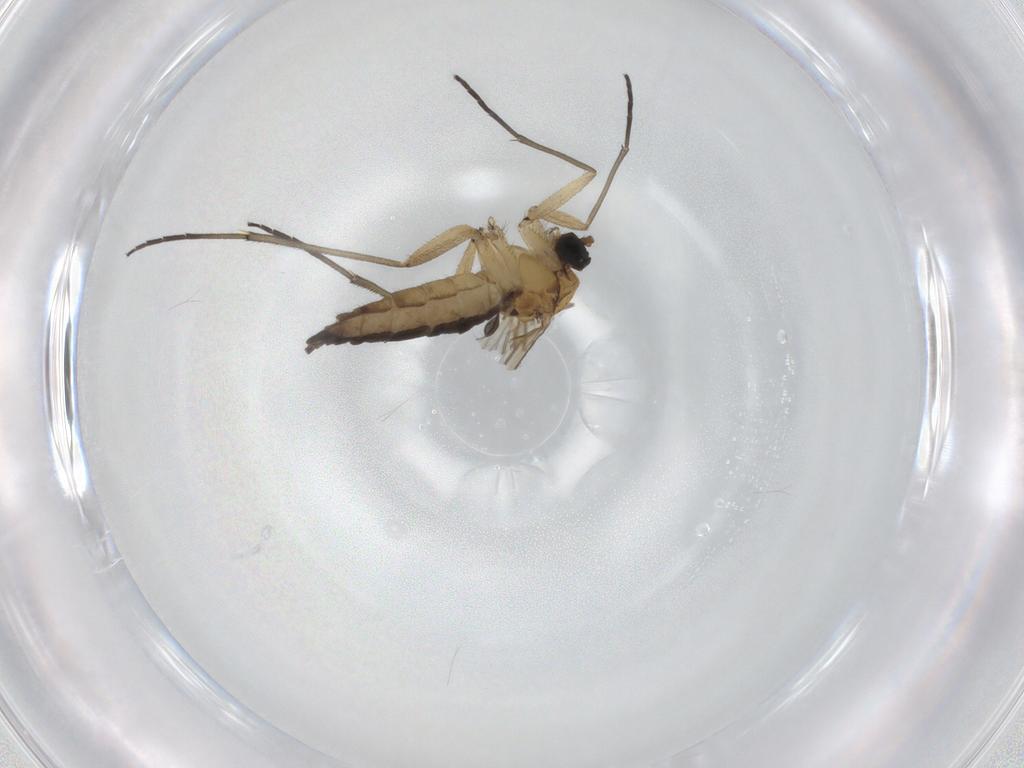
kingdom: Animalia
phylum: Arthropoda
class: Insecta
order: Diptera
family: Sciaridae
